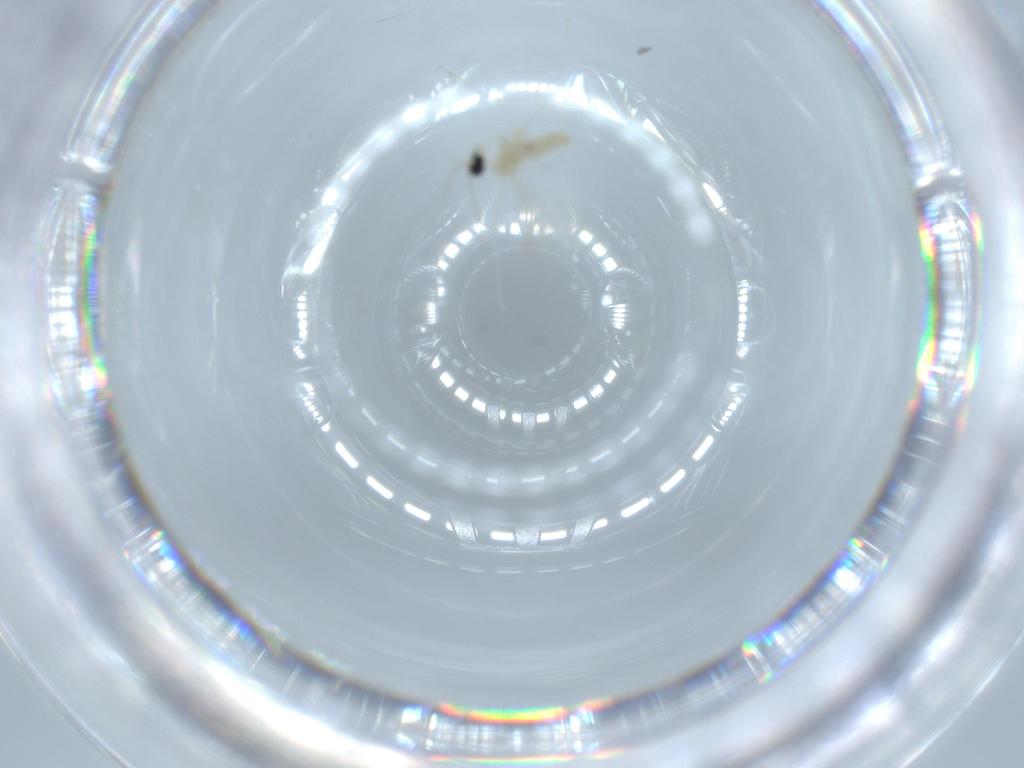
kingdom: Animalia
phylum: Arthropoda
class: Insecta
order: Diptera
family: Cecidomyiidae
